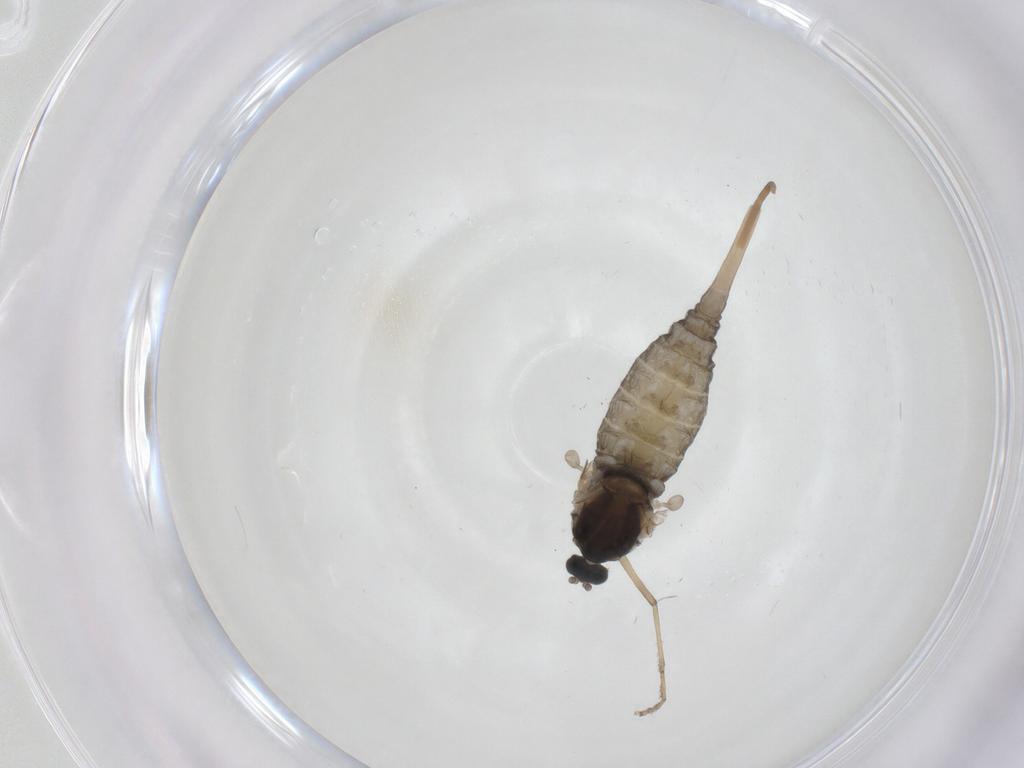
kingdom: Animalia
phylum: Arthropoda
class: Insecta
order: Diptera
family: Cecidomyiidae
